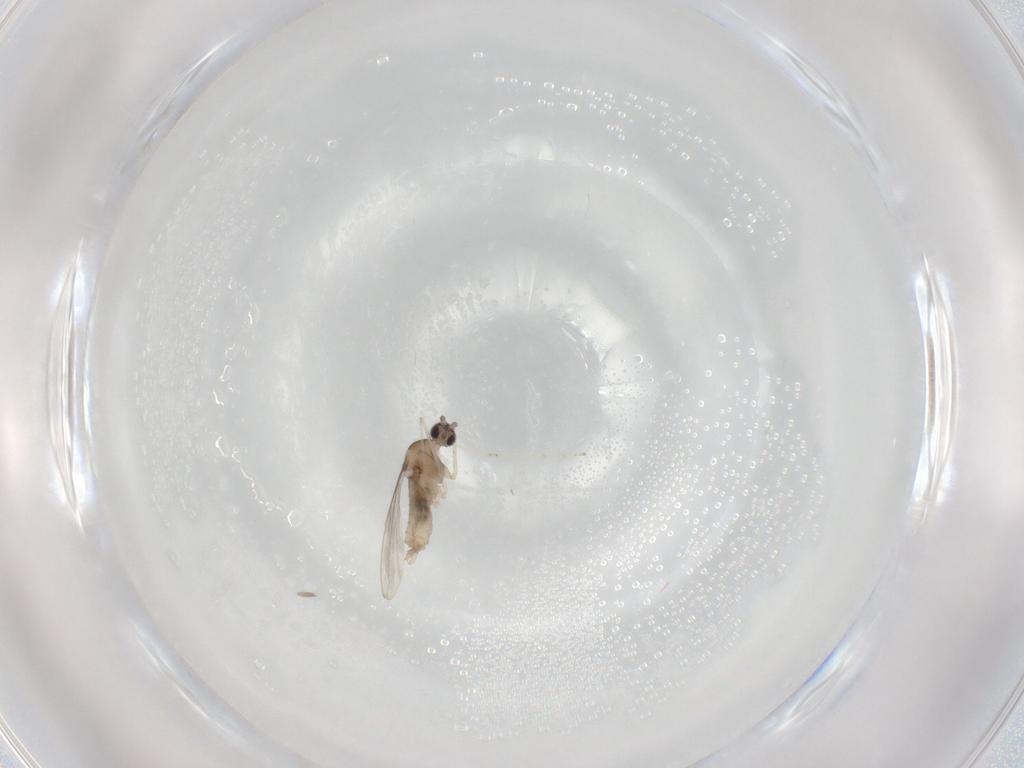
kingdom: Animalia
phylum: Arthropoda
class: Insecta
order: Diptera
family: Cecidomyiidae
